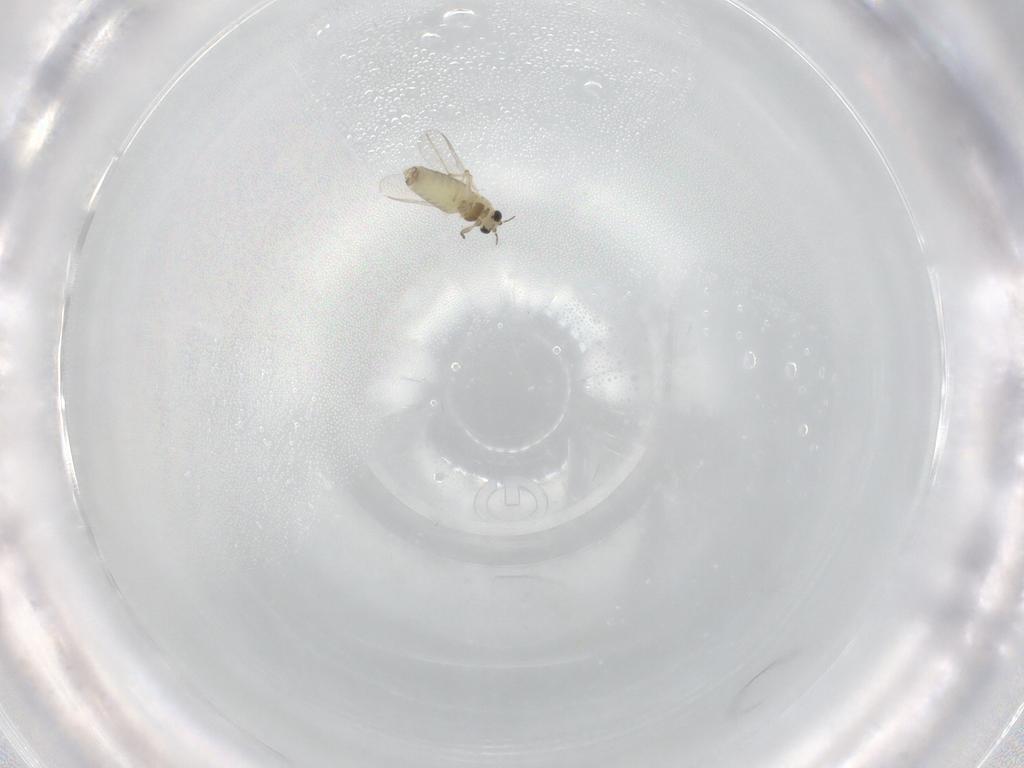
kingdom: Animalia
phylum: Arthropoda
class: Insecta
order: Diptera
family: Chironomidae
